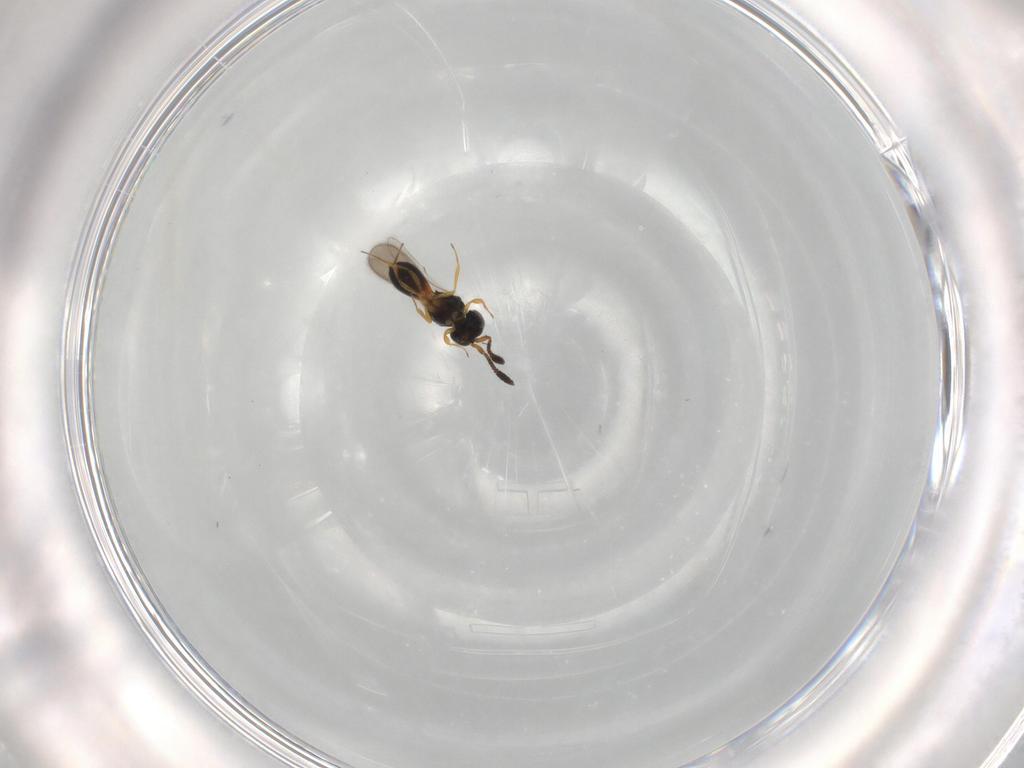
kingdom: Animalia
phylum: Arthropoda
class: Insecta
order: Hymenoptera
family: Scelionidae
